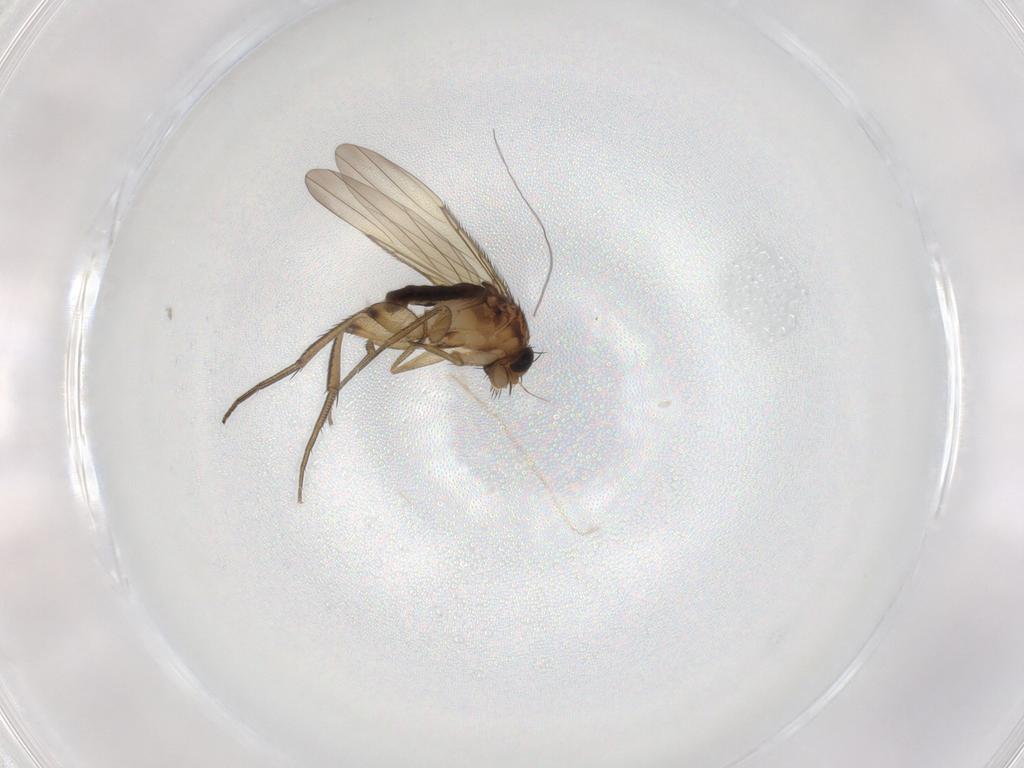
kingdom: Animalia
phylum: Arthropoda
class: Insecta
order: Diptera
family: Phoridae
